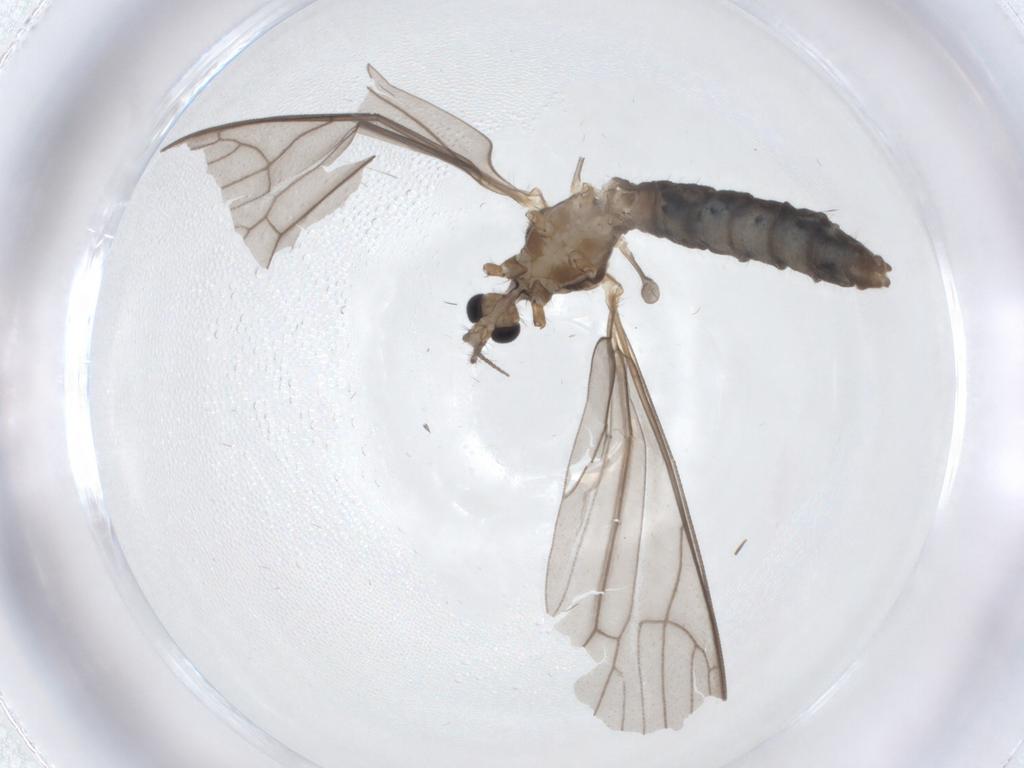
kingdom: Animalia
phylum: Arthropoda
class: Insecta
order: Diptera
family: Limoniidae
